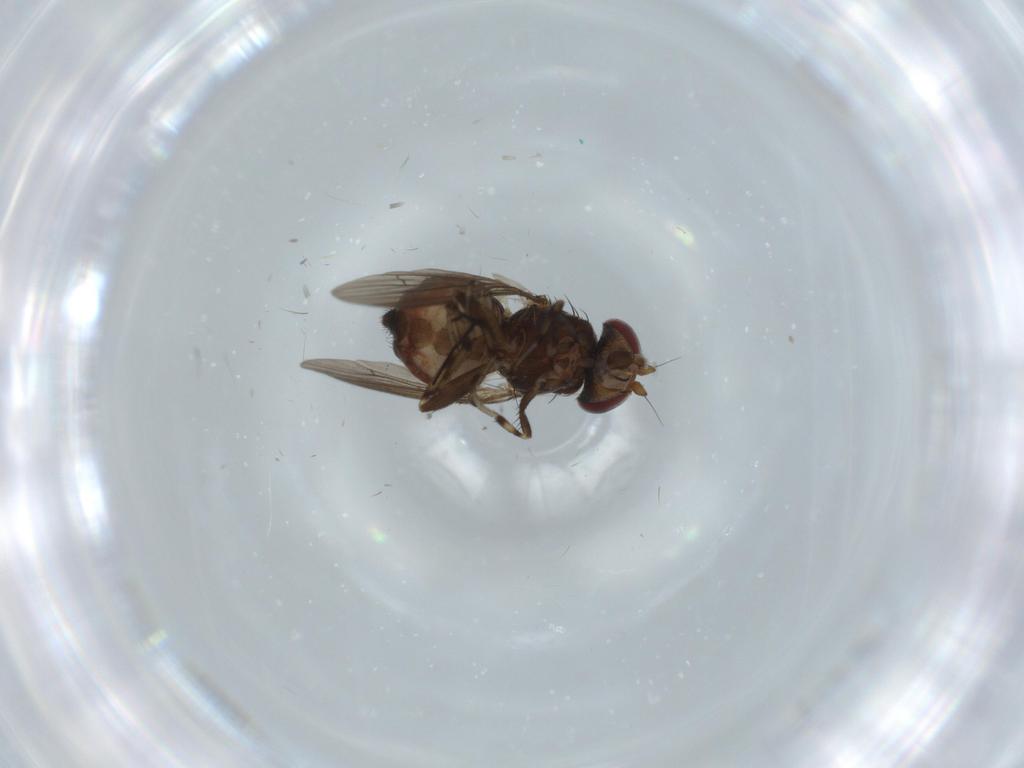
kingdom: Animalia
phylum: Arthropoda
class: Insecta
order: Diptera
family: Heleomyzidae
